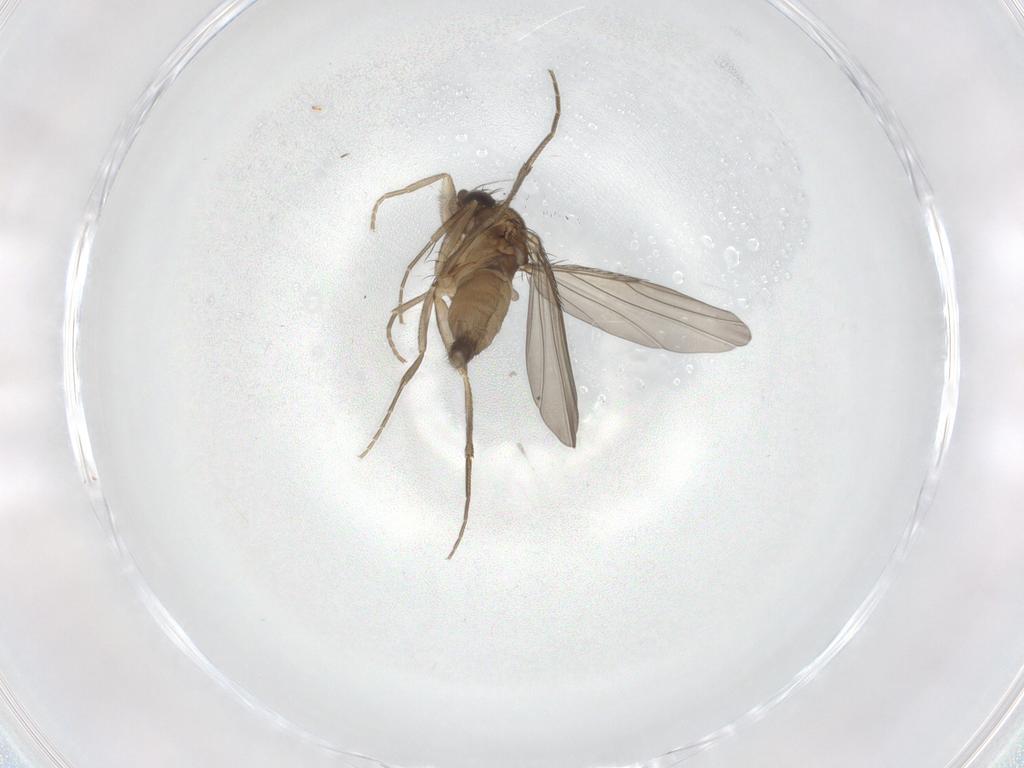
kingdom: Animalia
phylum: Arthropoda
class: Insecta
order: Diptera
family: Phoridae
